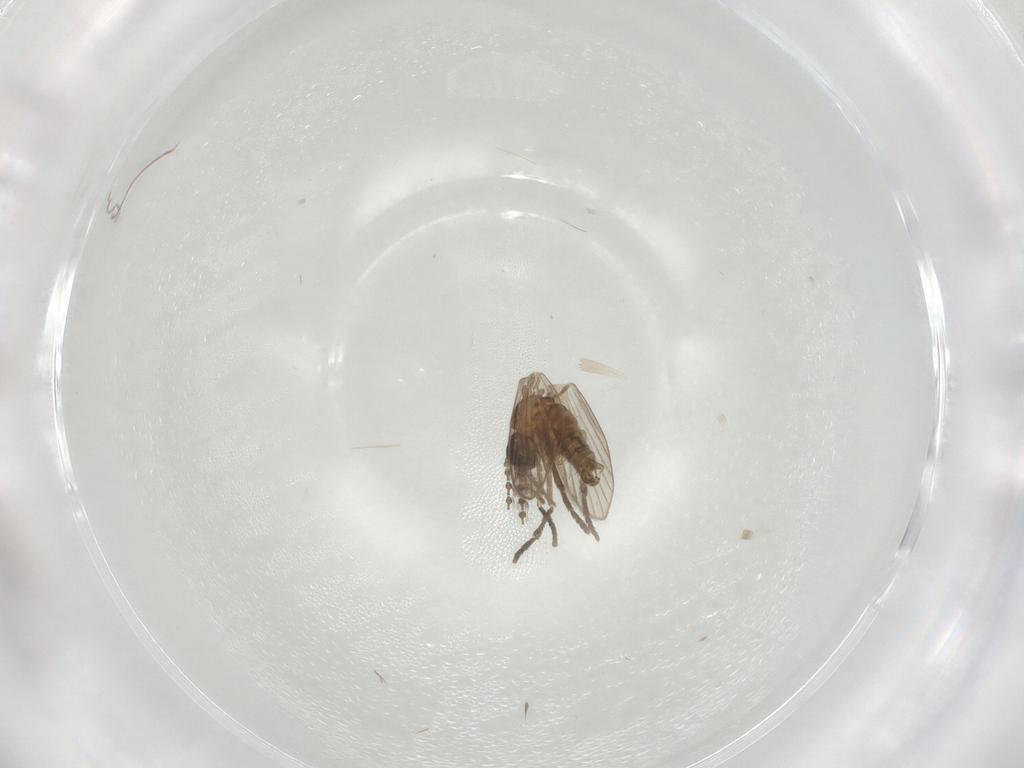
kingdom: Animalia
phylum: Arthropoda
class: Insecta
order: Diptera
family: Psychodidae
